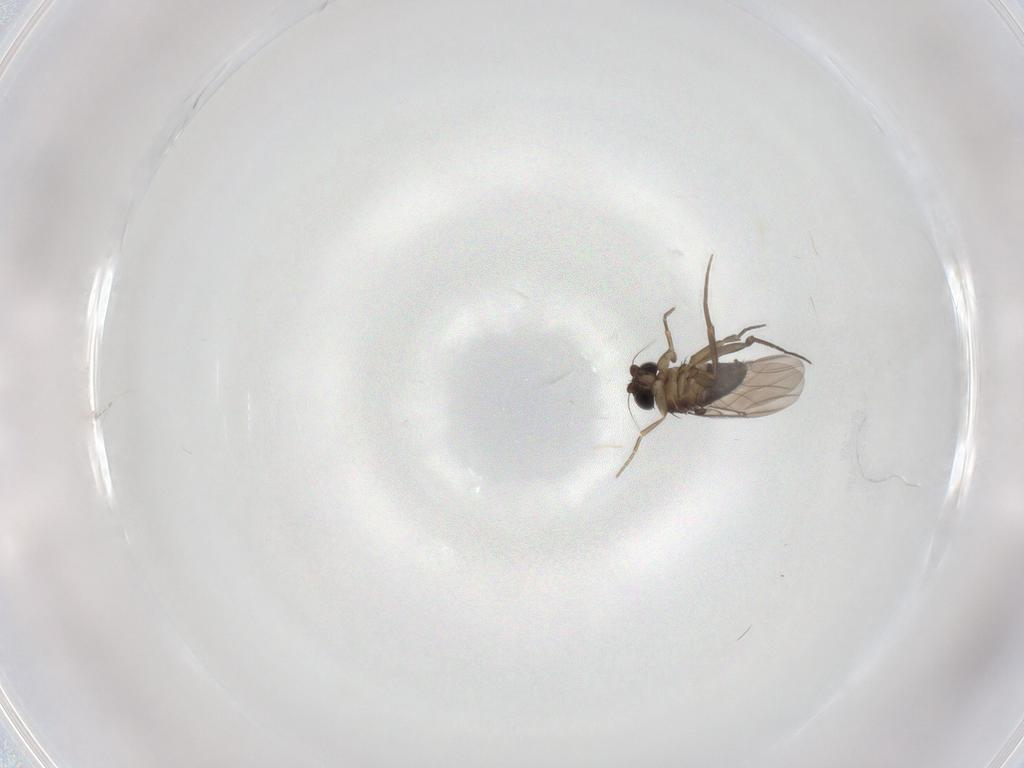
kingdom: Animalia
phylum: Arthropoda
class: Insecta
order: Diptera
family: Phoridae
